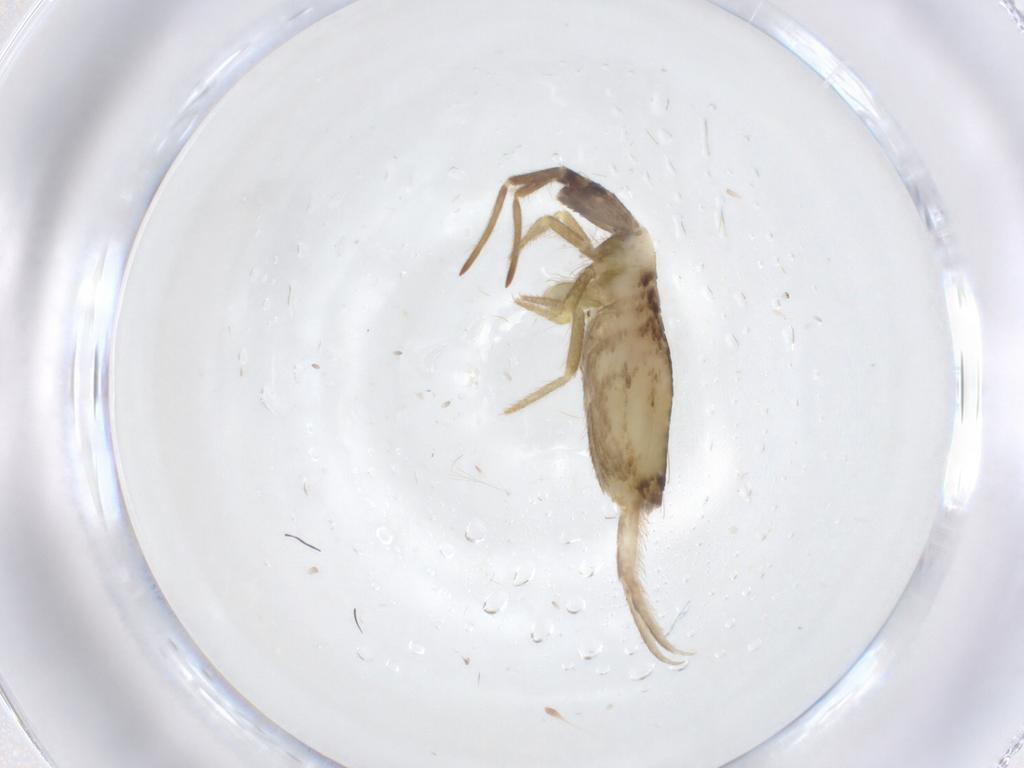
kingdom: Animalia
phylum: Arthropoda
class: Collembola
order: Entomobryomorpha
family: Entomobryidae
